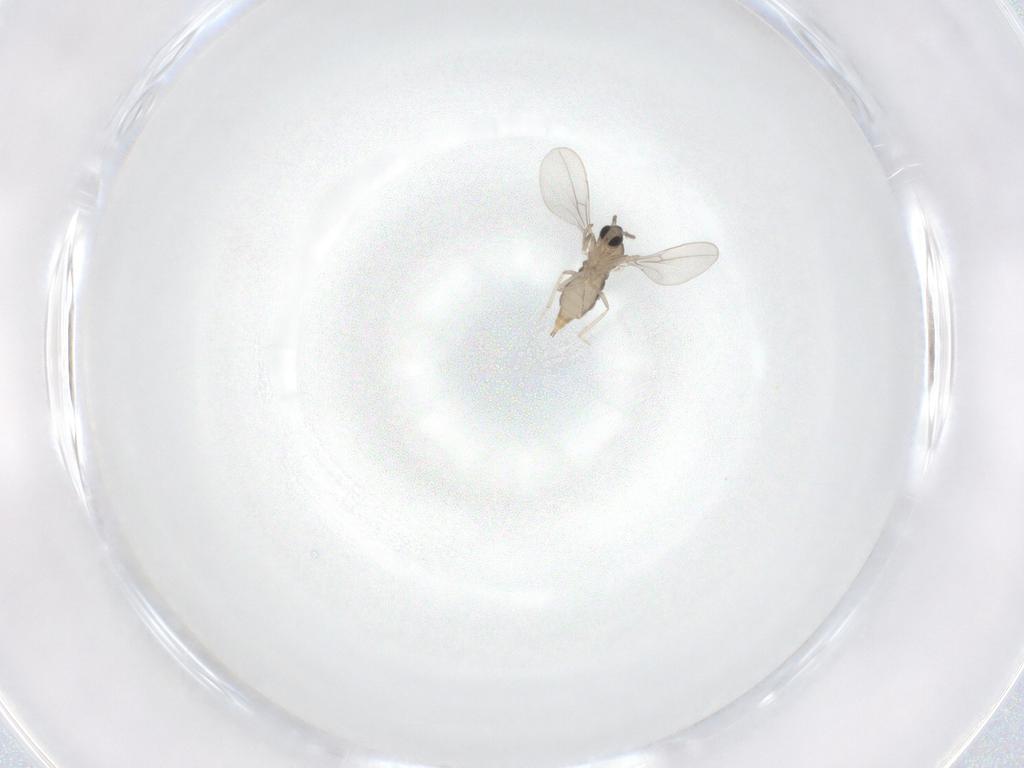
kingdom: Animalia
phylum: Arthropoda
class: Insecta
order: Diptera
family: Cecidomyiidae
